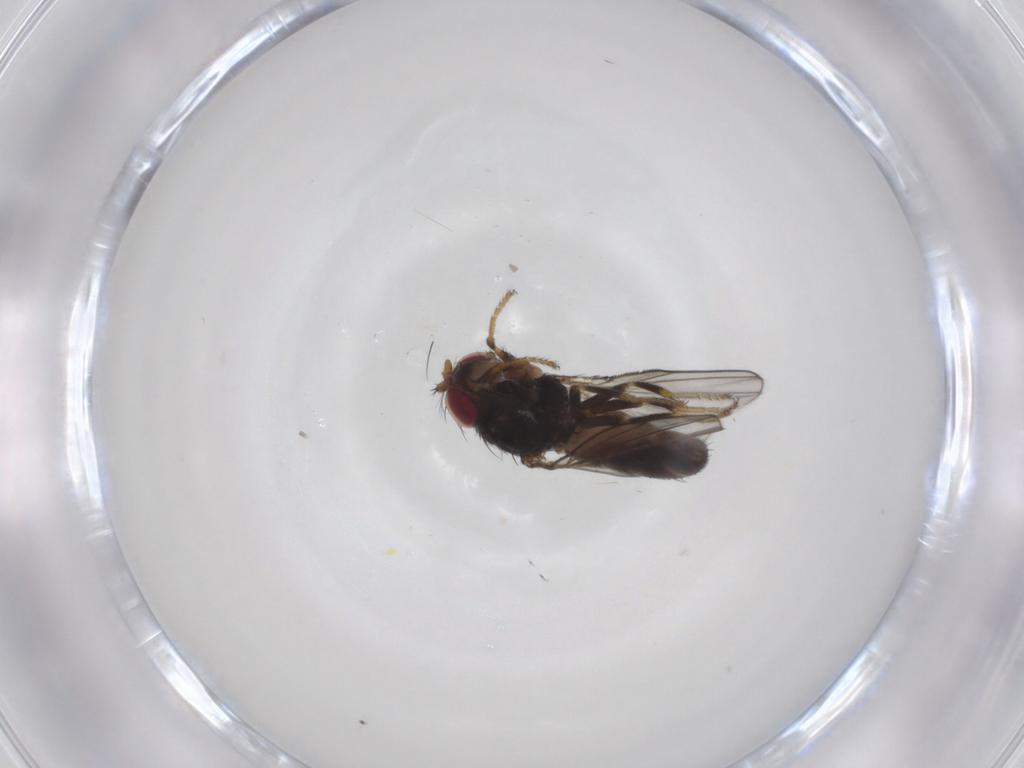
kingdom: Animalia
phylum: Arthropoda
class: Insecta
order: Diptera
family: Ephydridae
